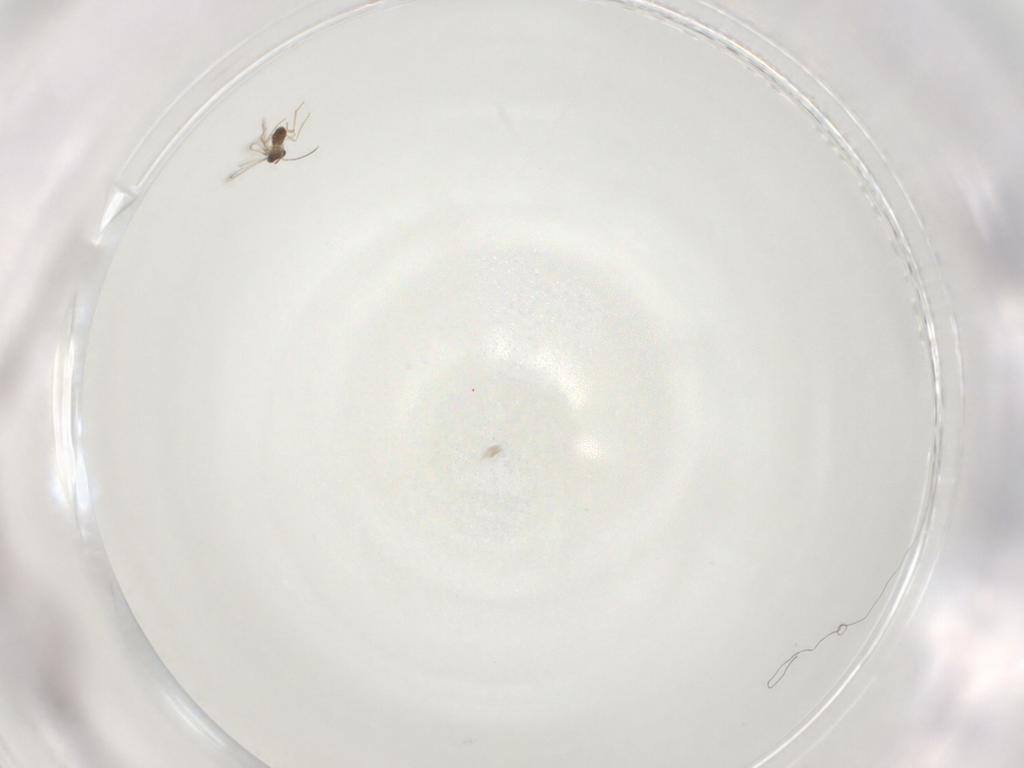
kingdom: Animalia
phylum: Arthropoda
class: Insecta
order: Hymenoptera
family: Mymaridae
